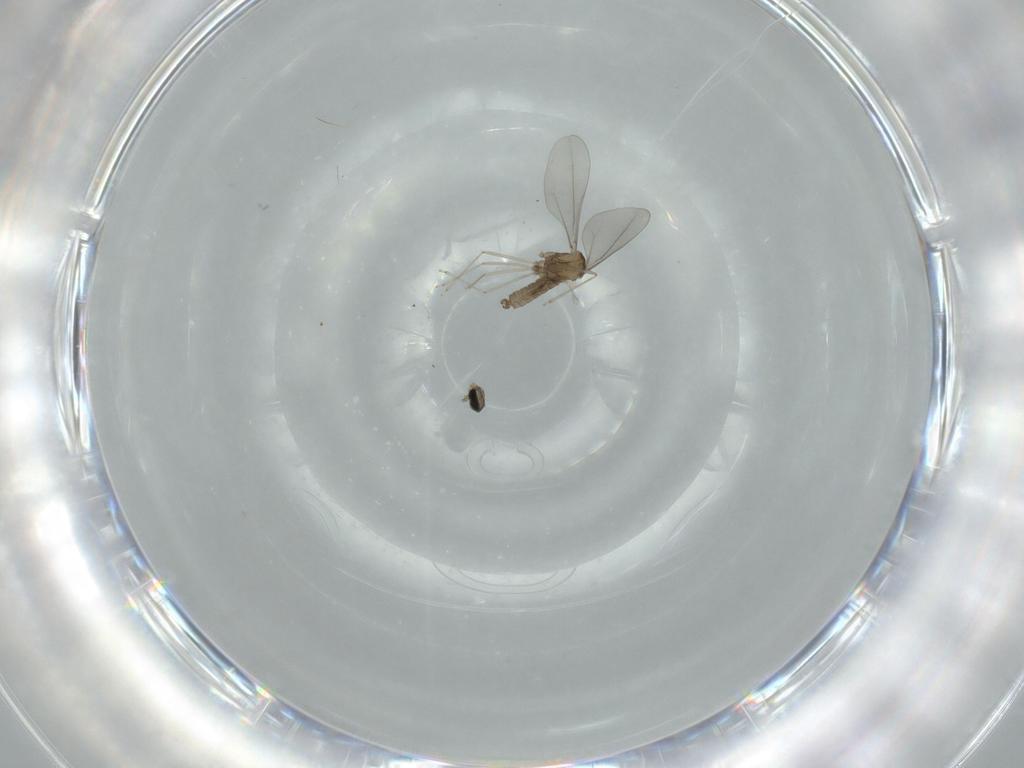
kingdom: Animalia
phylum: Arthropoda
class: Insecta
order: Diptera
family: Cecidomyiidae
